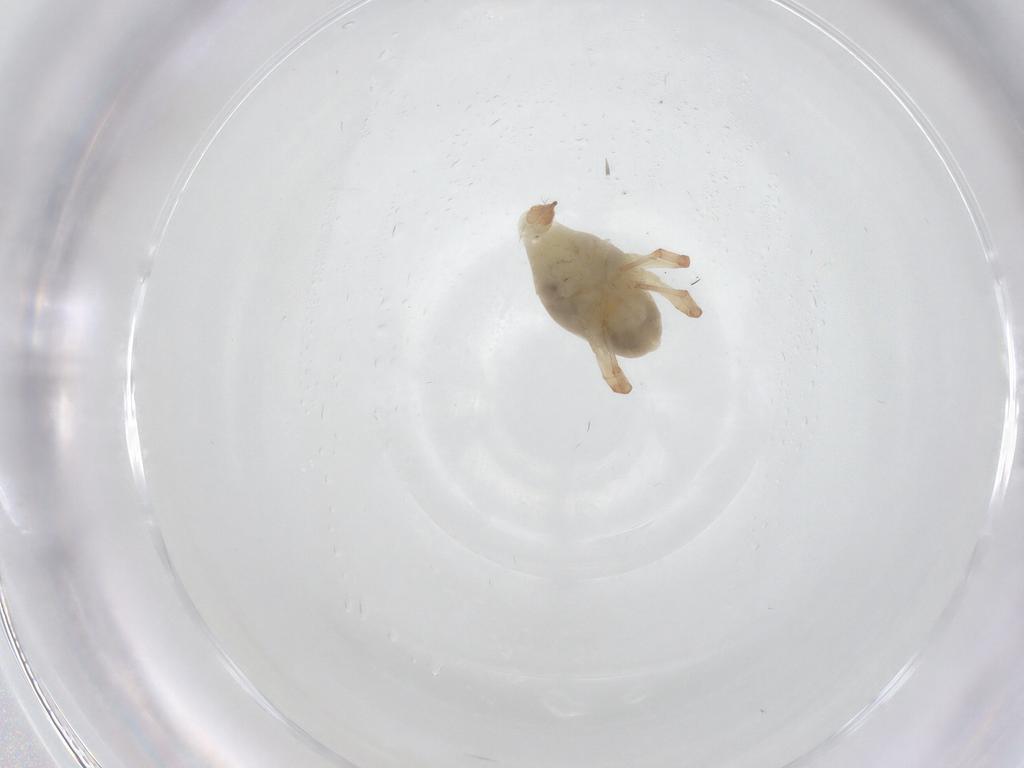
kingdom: Animalia
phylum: Arthropoda
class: Arachnida
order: Trombidiformes
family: Bdellidae
